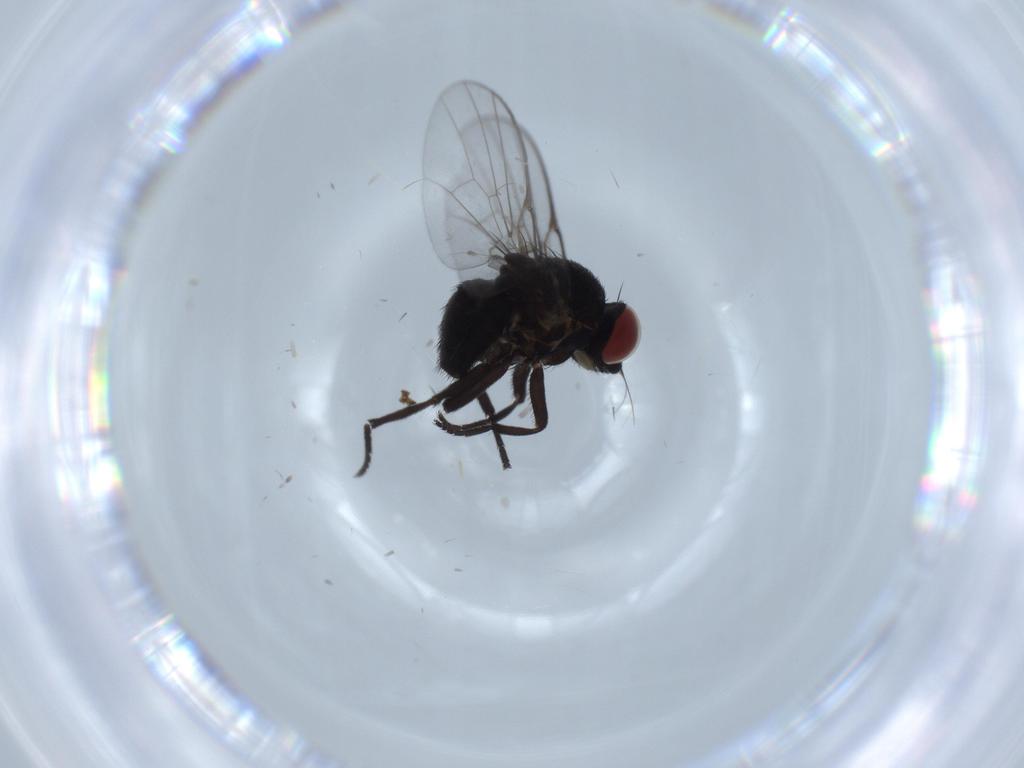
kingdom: Animalia
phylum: Arthropoda
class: Insecta
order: Diptera
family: Agromyzidae
